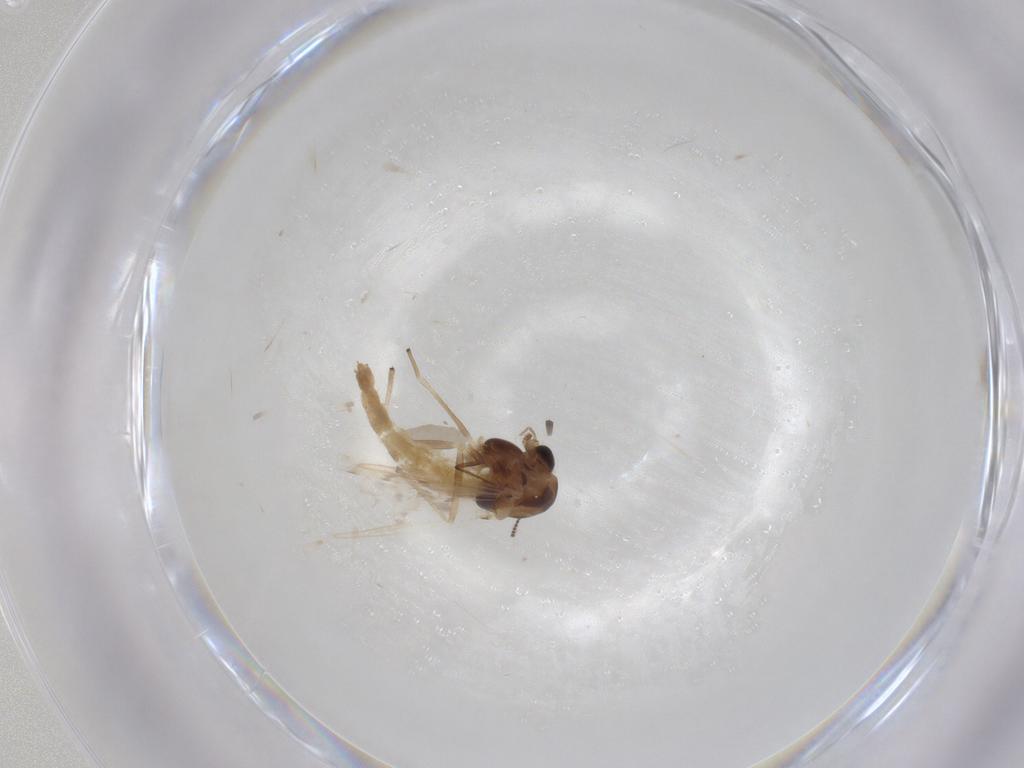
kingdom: Animalia
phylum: Arthropoda
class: Insecta
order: Diptera
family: Chironomidae
